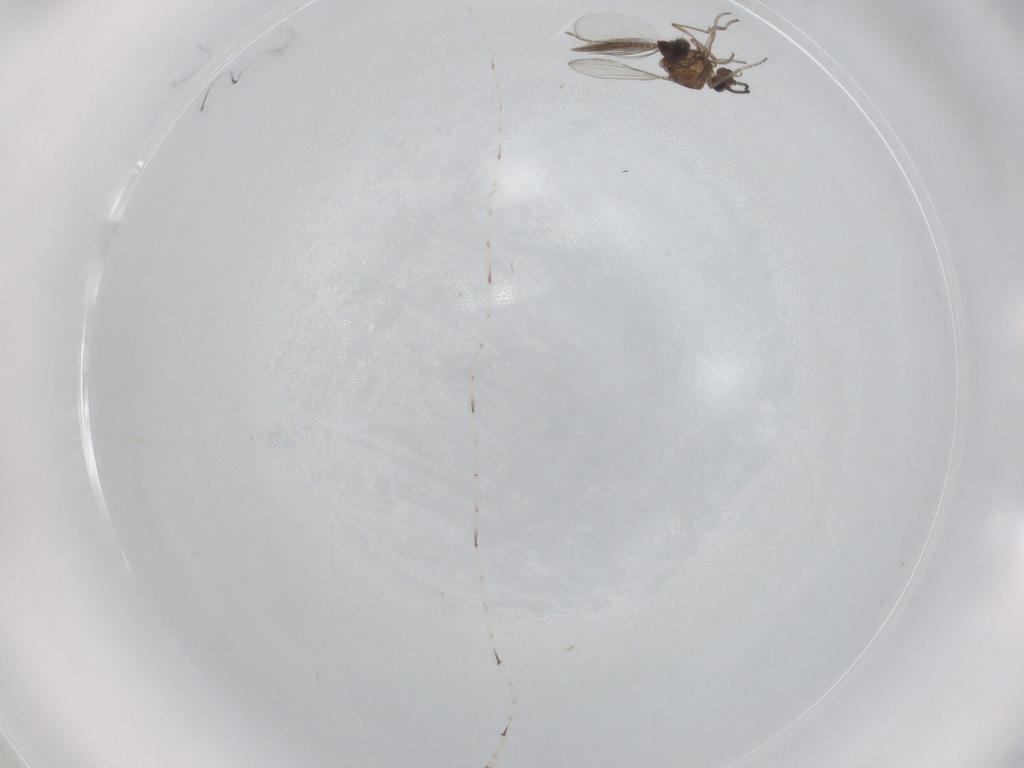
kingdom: Animalia
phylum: Arthropoda
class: Insecta
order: Diptera
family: Ceratopogonidae
